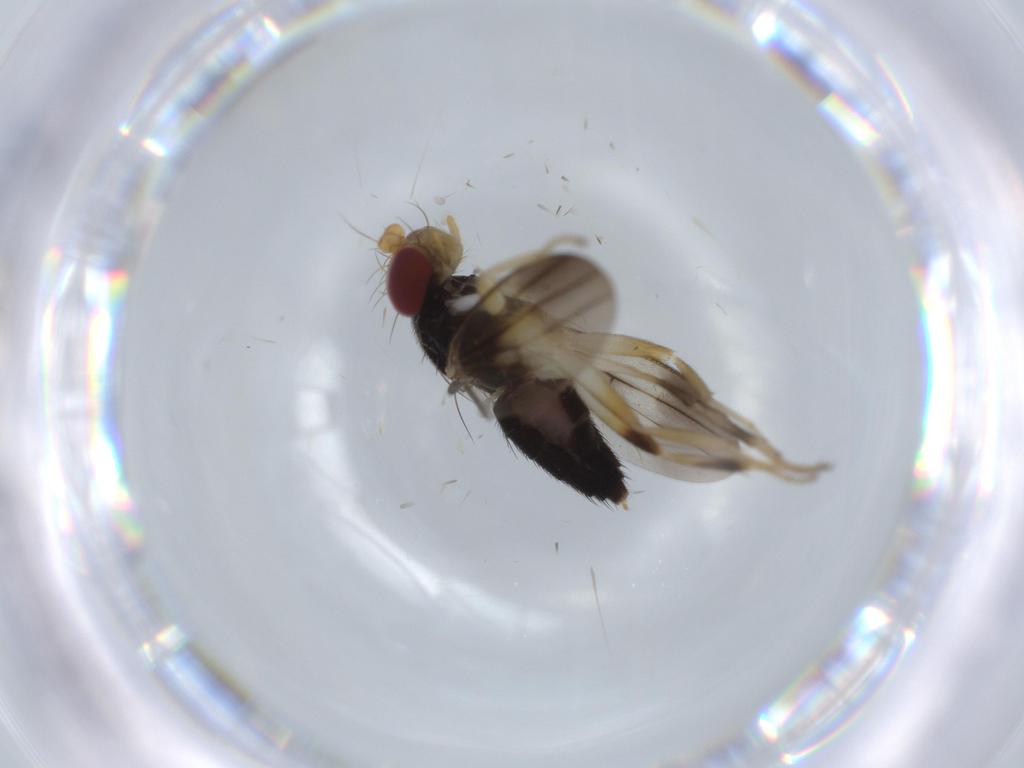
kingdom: Animalia
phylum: Arthropoda
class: Insecta
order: Diptera
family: Clusiidae
